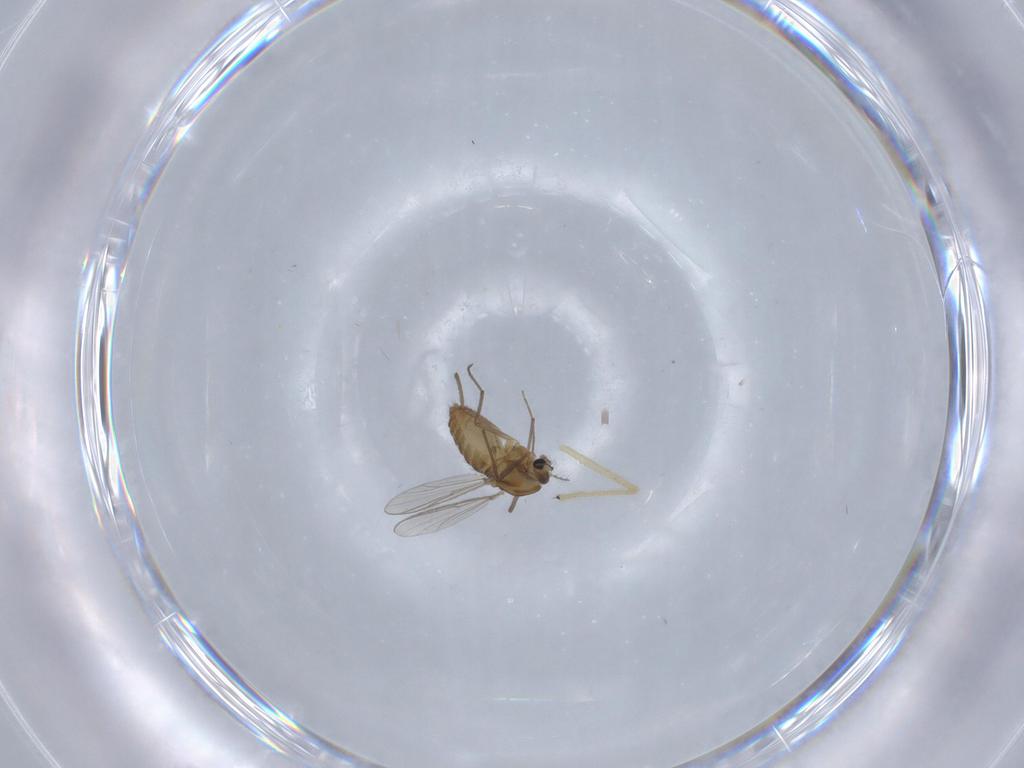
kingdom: Animalia
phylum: Arthropoda
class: Insecta
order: Diptera
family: Chironomidae
